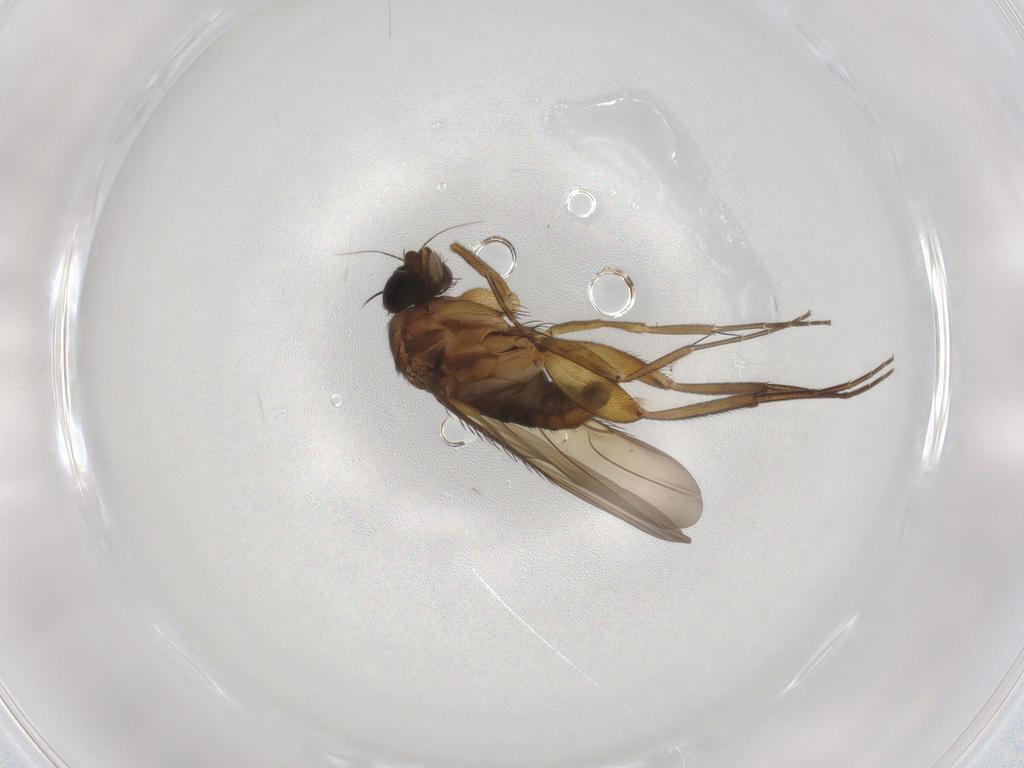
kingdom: Animalia
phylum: Arthropoda
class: Insecta
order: Diptera
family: Phoridae
